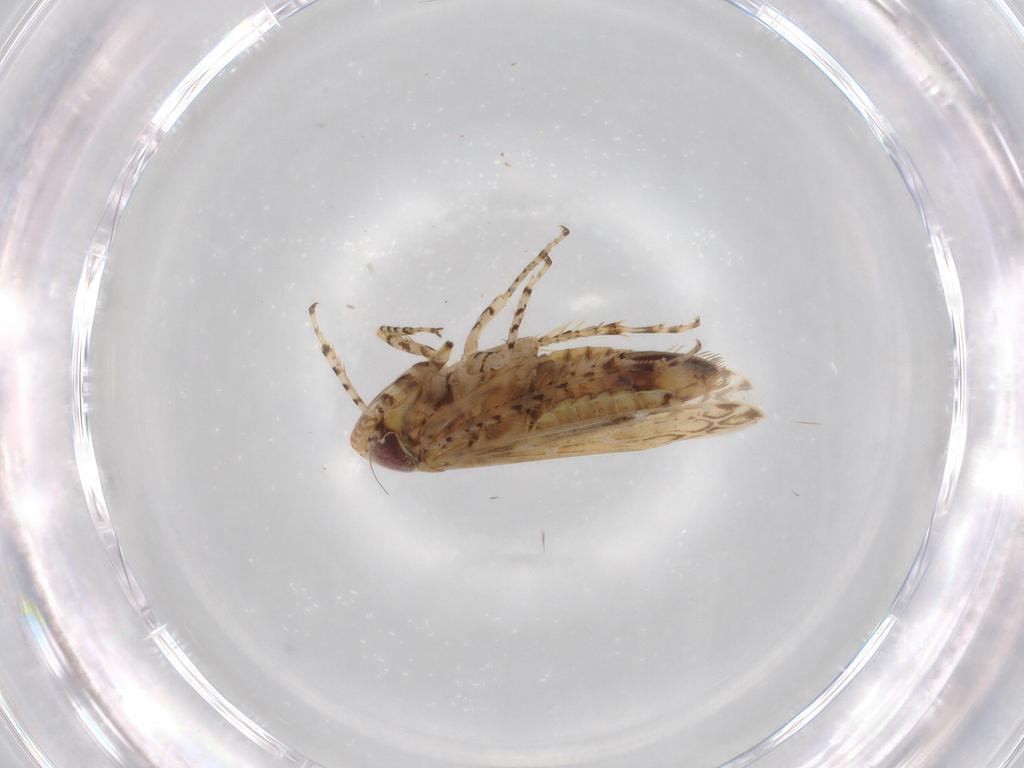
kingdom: Animalia
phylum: Arthropoda
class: Insecta
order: Hemiptera
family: Cicadellidae
